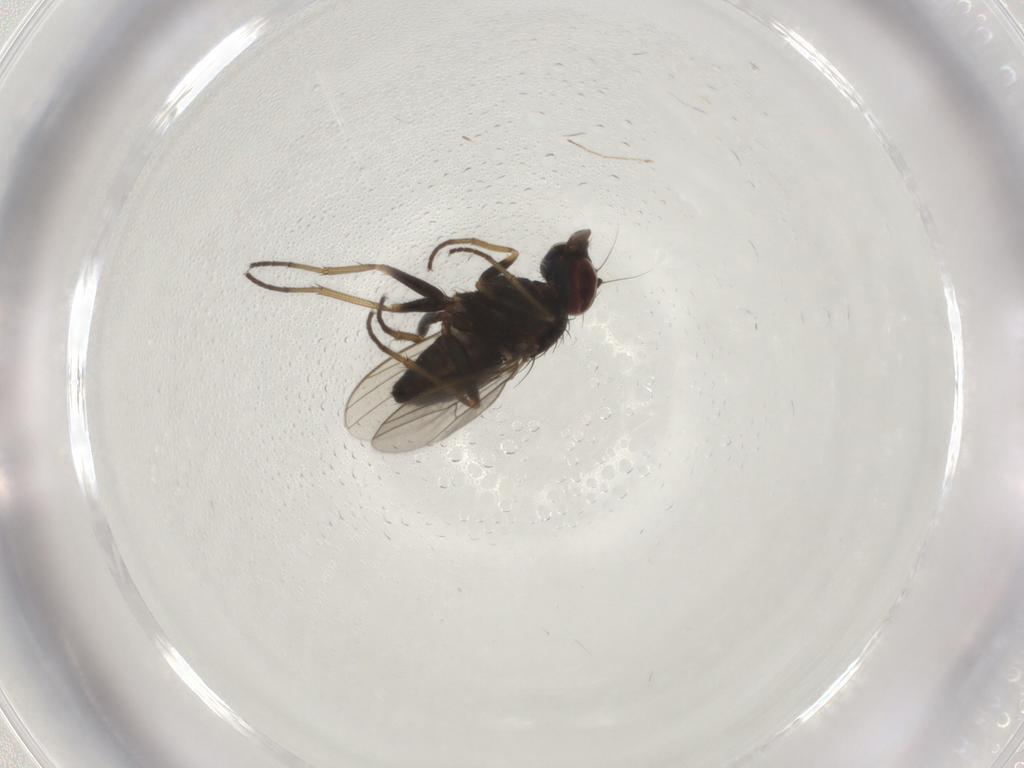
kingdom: Animalia
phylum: Arthropoda
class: Insecta
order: Diptera
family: Dolichopodidae
